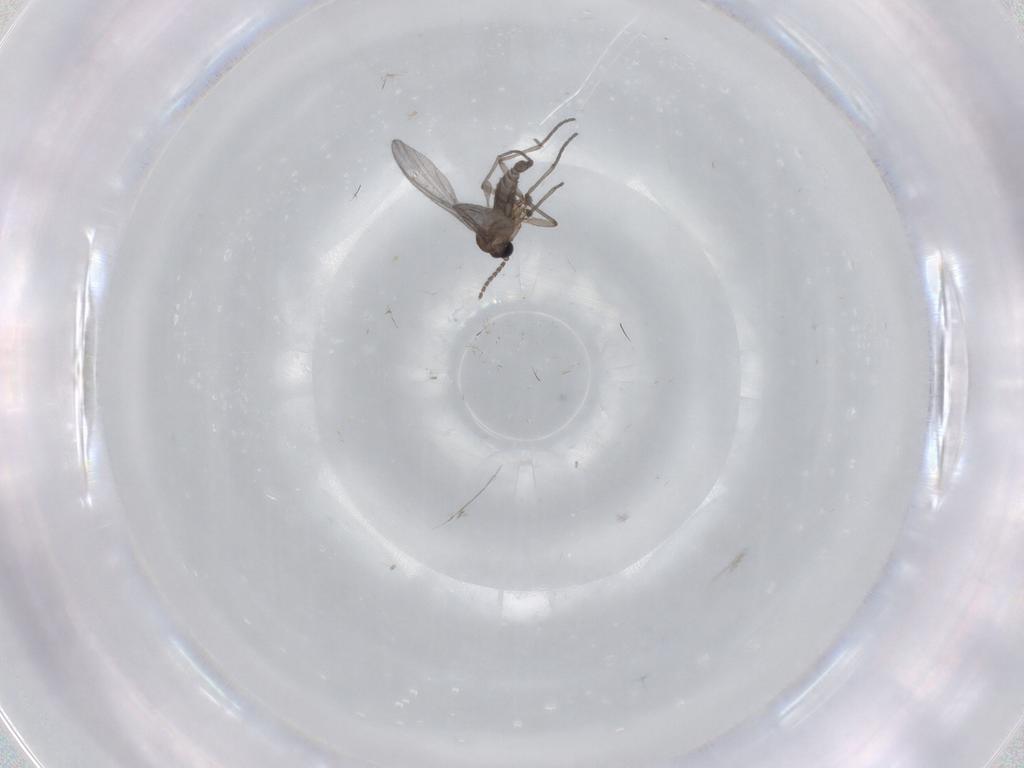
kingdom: Animalia
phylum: Arthropoda
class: Insecta
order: Diptera
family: Sciaridae
